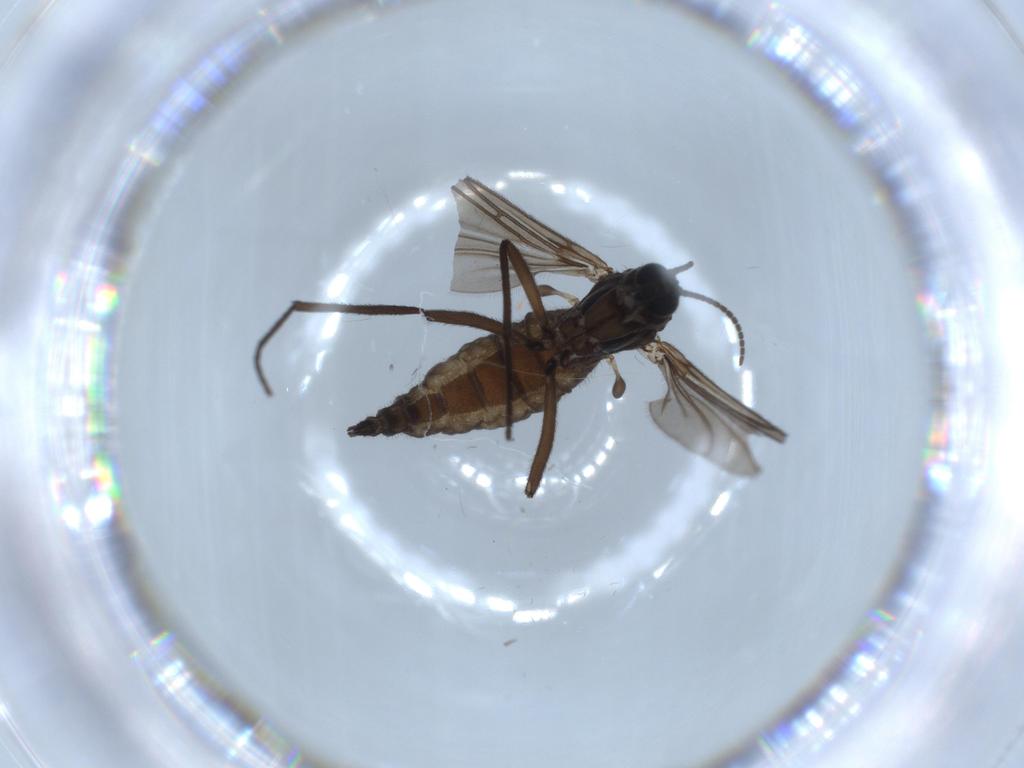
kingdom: Animalia
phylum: Arthropoda
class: Insecta
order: Diptera
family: Sciaridae
